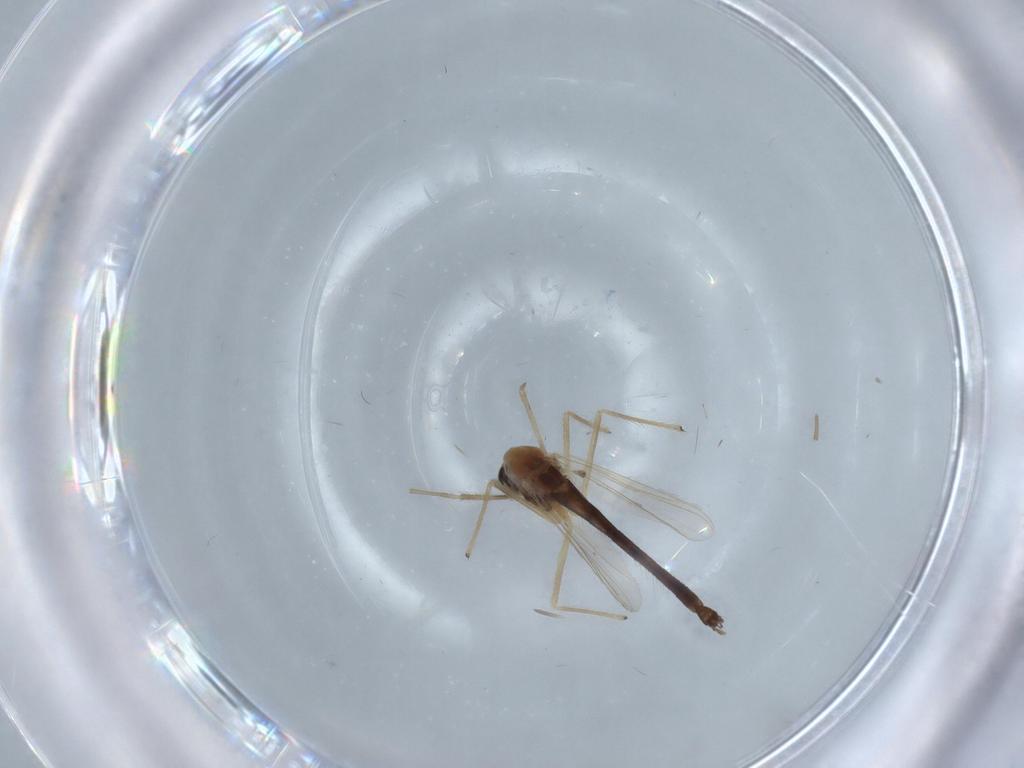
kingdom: Animalia
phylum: Arthropoda
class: Insecta
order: Diptera
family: Chironomidae
